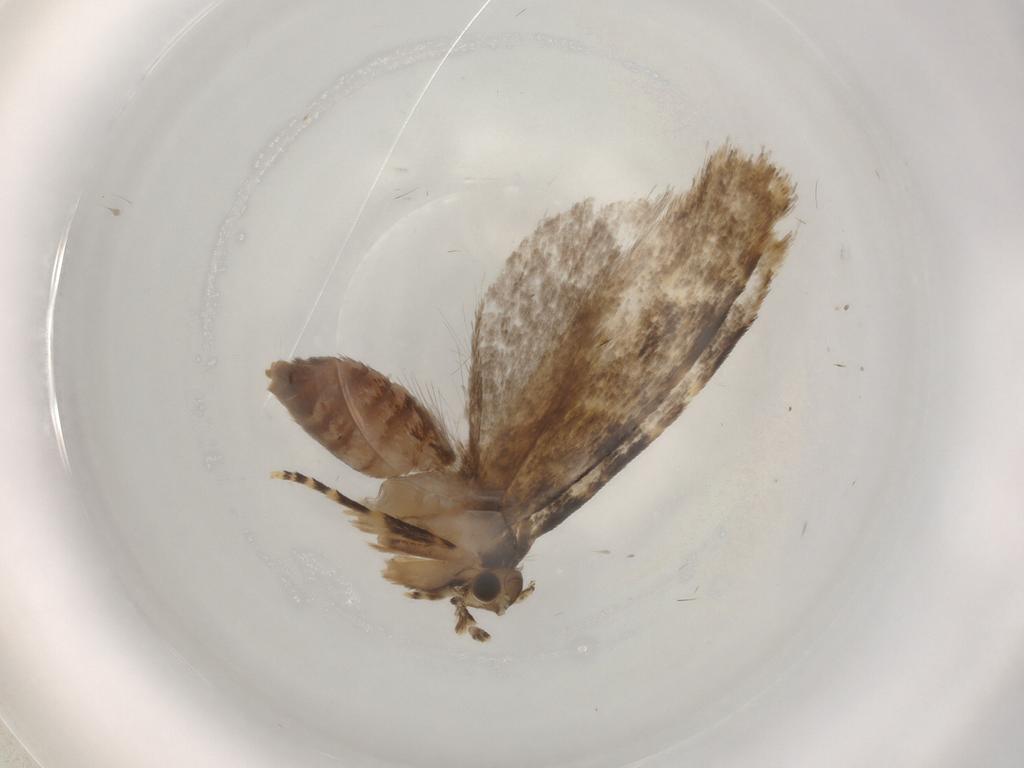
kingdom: Animalia
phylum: Arthropoda
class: Insecta
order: Lepidoptera
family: Tineidae
